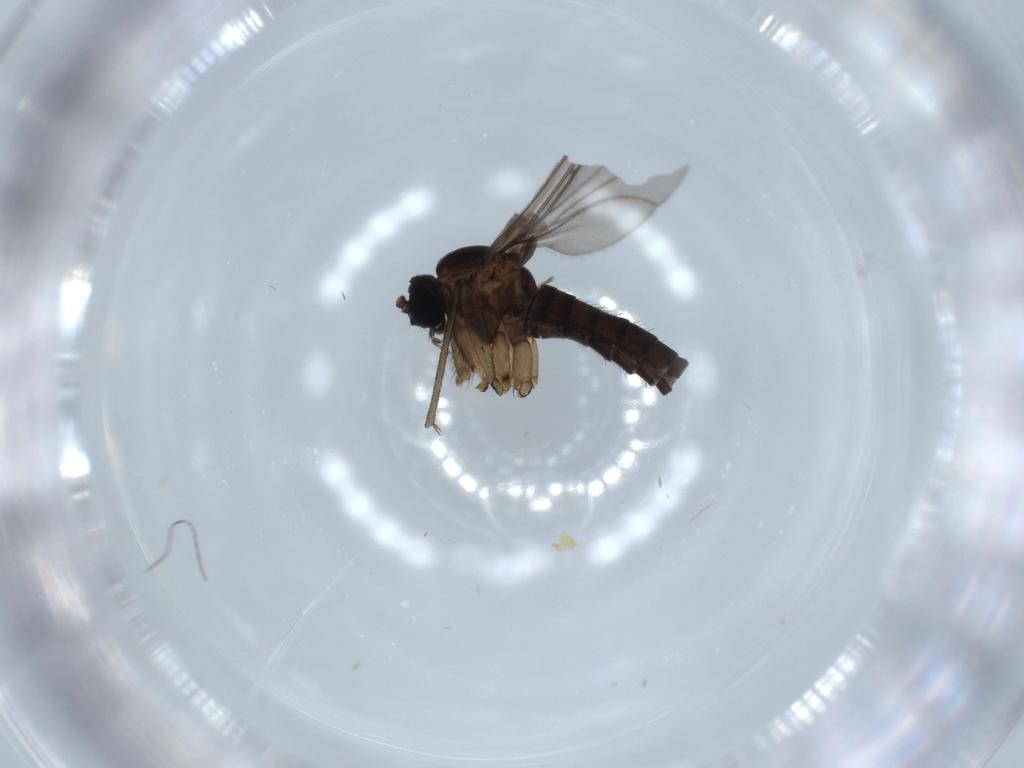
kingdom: Animalia
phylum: Arthropoda
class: Insecta
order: Diptera
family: Sciaridae
